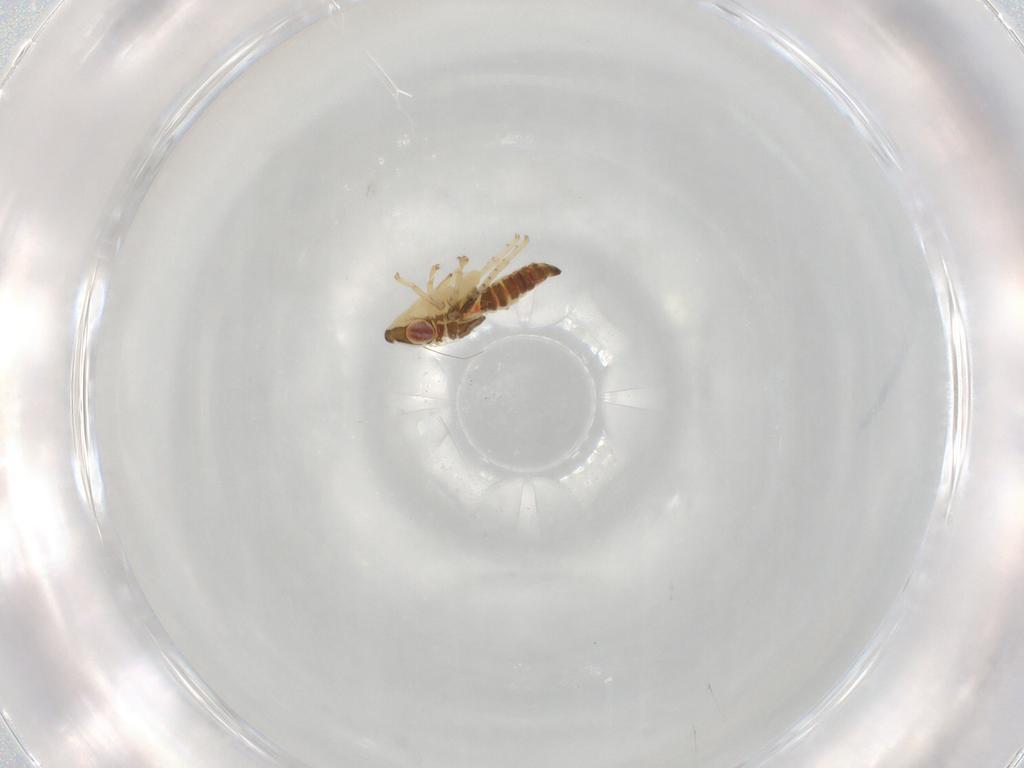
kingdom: Animalia
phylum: Arthropoda
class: Insecta
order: Hemiptera
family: Cicadellidae
